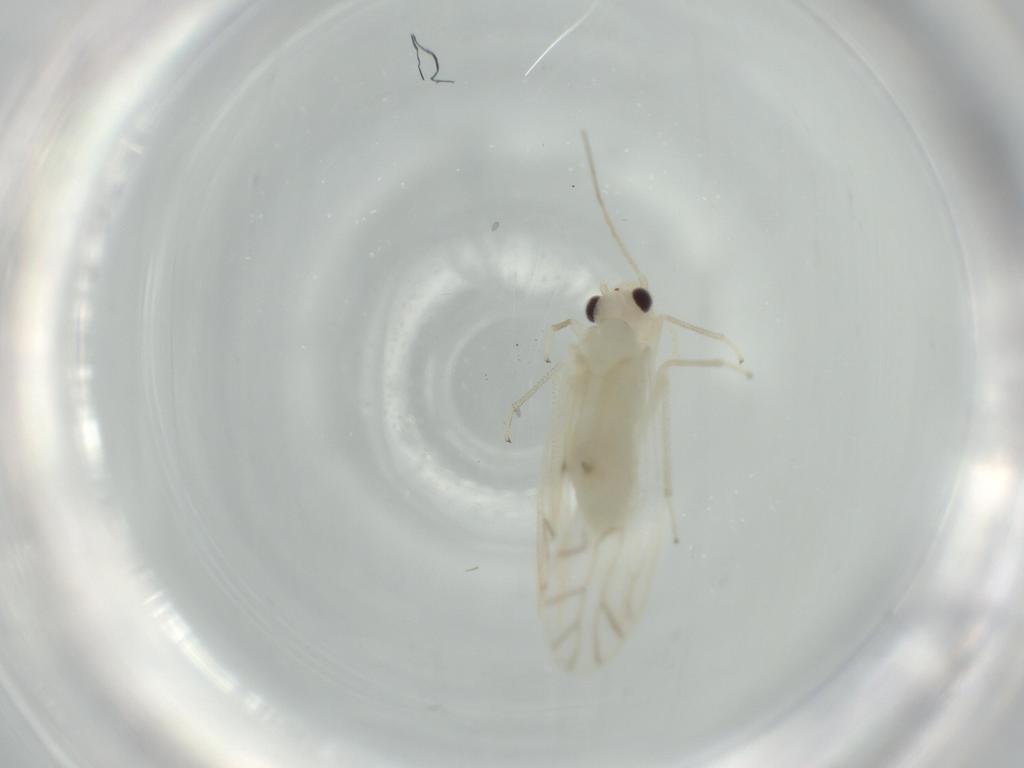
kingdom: Animalia
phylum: Arthropoda
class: Insecta
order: Psocodea
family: Caeciliusidae
